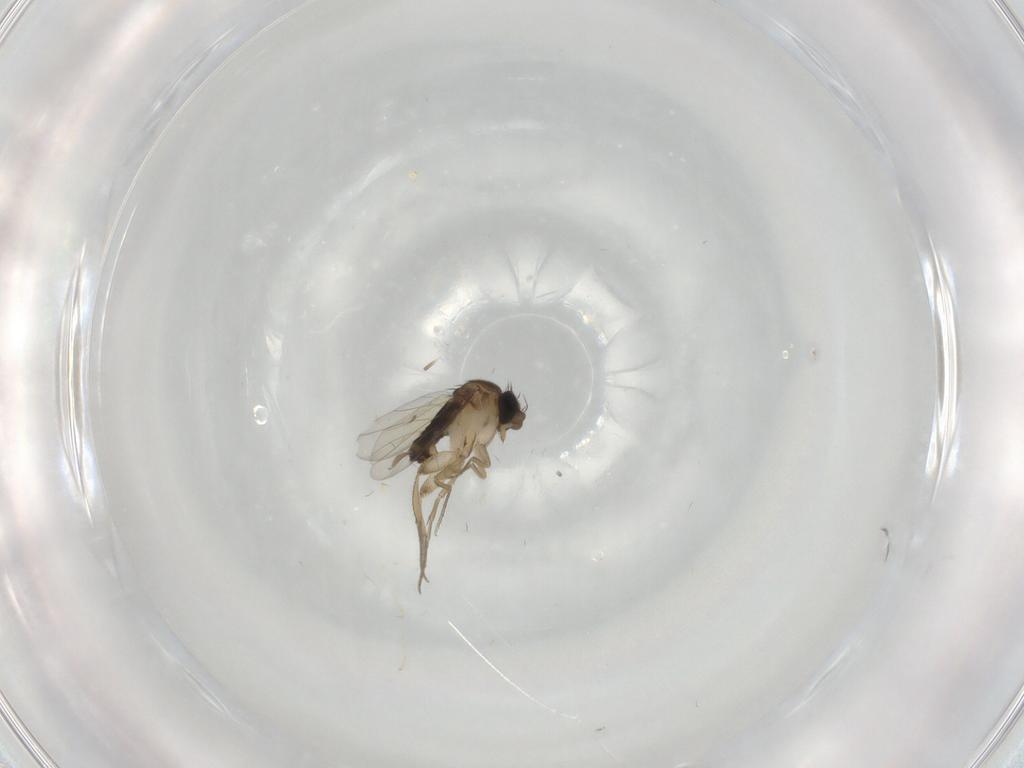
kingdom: Animalia
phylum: Arthropoda
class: Insecta
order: Diptera
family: Cecidomyiidae
